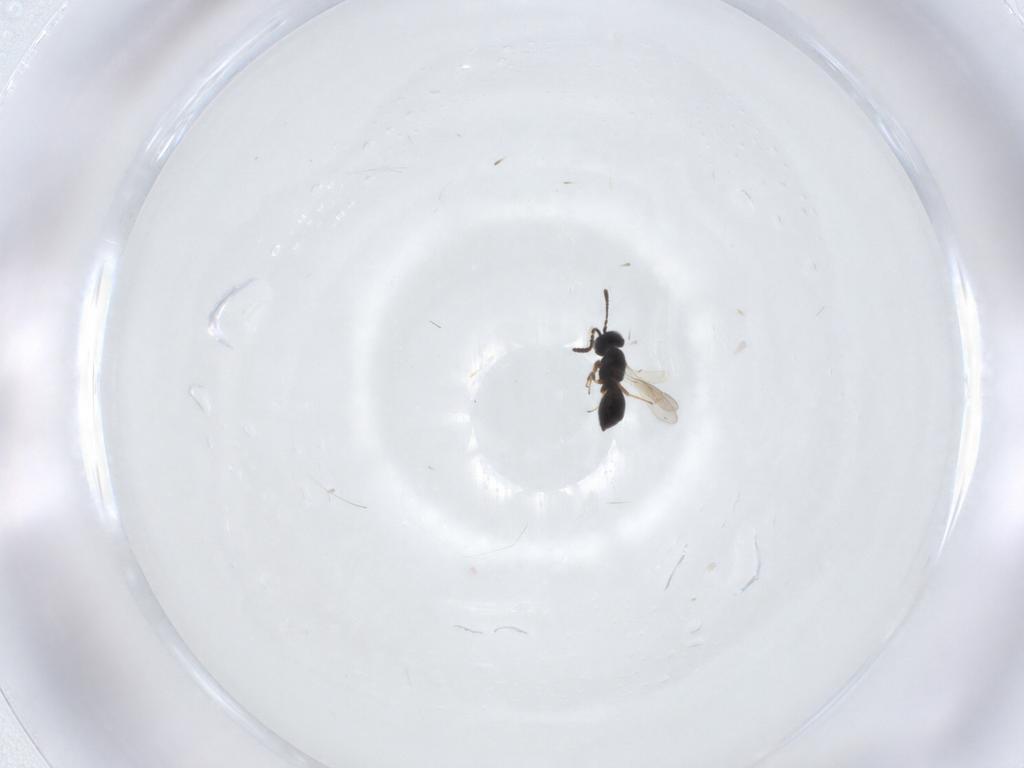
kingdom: Animalia
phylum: Arthropoda
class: Insecta
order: Hymenoptera
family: Scelionidae
